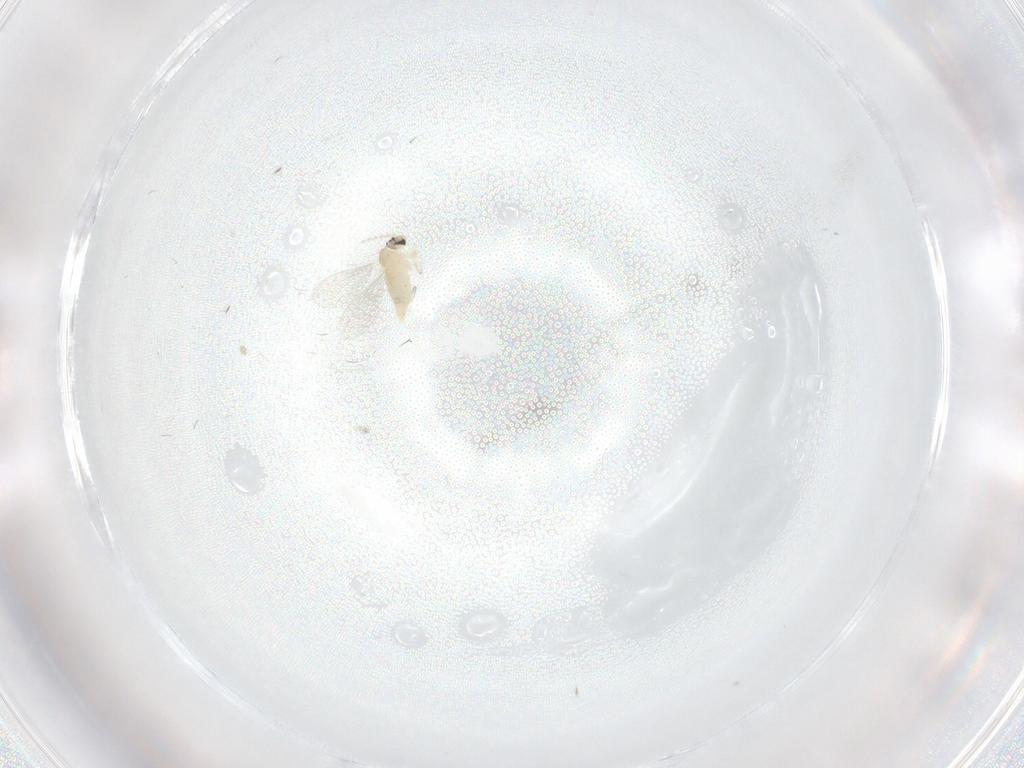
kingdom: Animalia
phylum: Arthropoda
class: Insecta
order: Diptera
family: Cecidomyiidae
